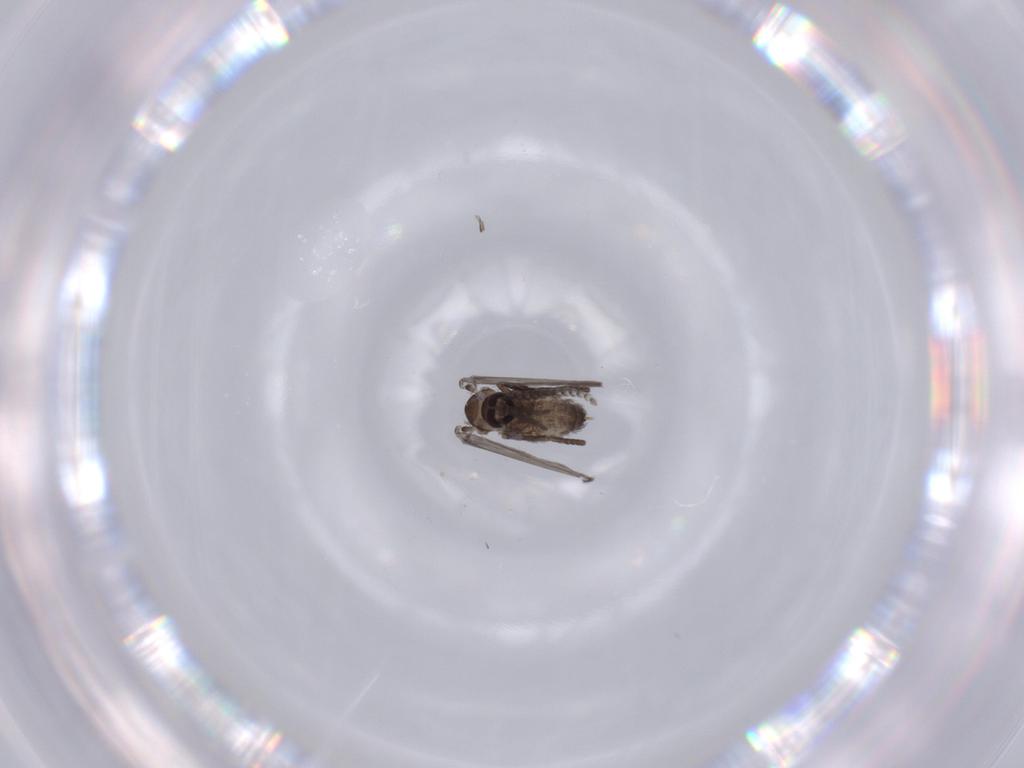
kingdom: Animalia
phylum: Arthropoda
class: Insecta
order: Diptera
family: Psychodidae
